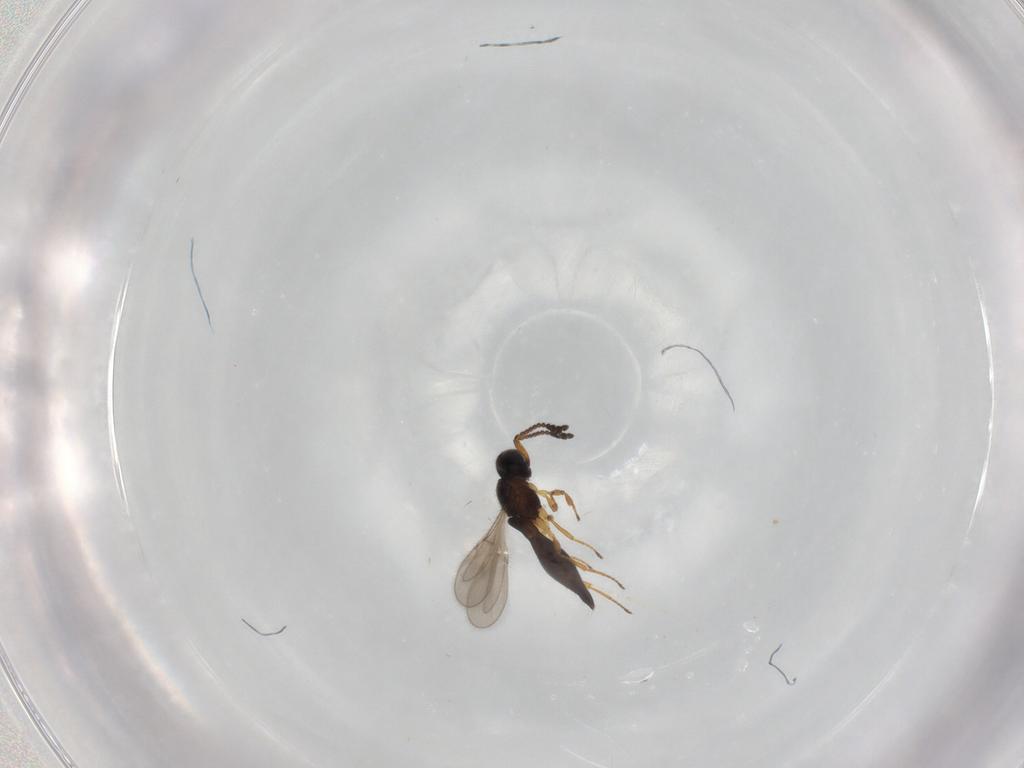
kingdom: Animalia
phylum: Arthropoda
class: Insecta
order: Hymenoptera
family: Scelionidae
